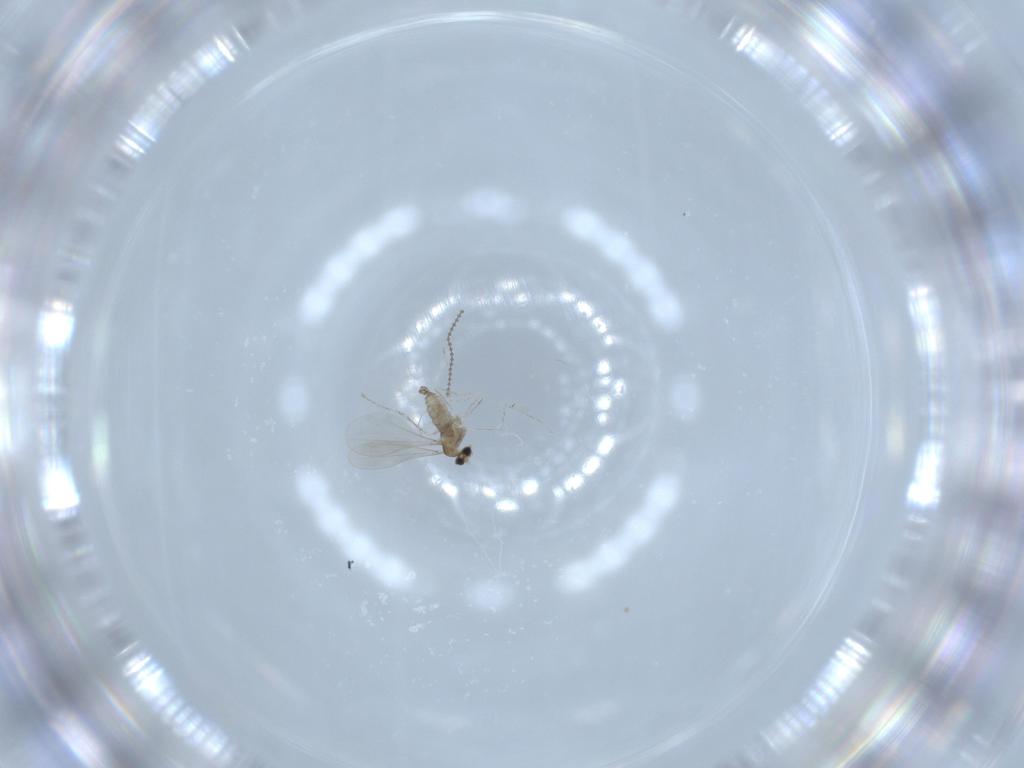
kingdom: Animalia
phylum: Arthropoda
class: Insecta
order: Diptera
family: Cecidomyiidae
